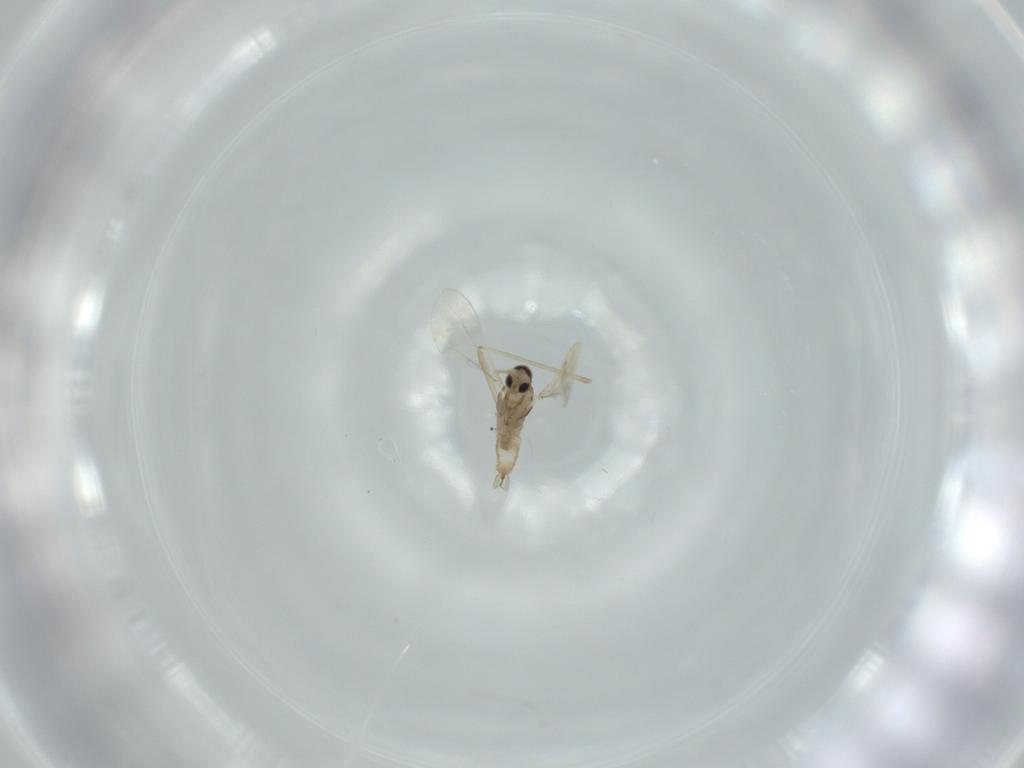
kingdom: Animalia
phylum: Arthropoda
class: Insecta
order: Diptera
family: Cecidomyiidae
